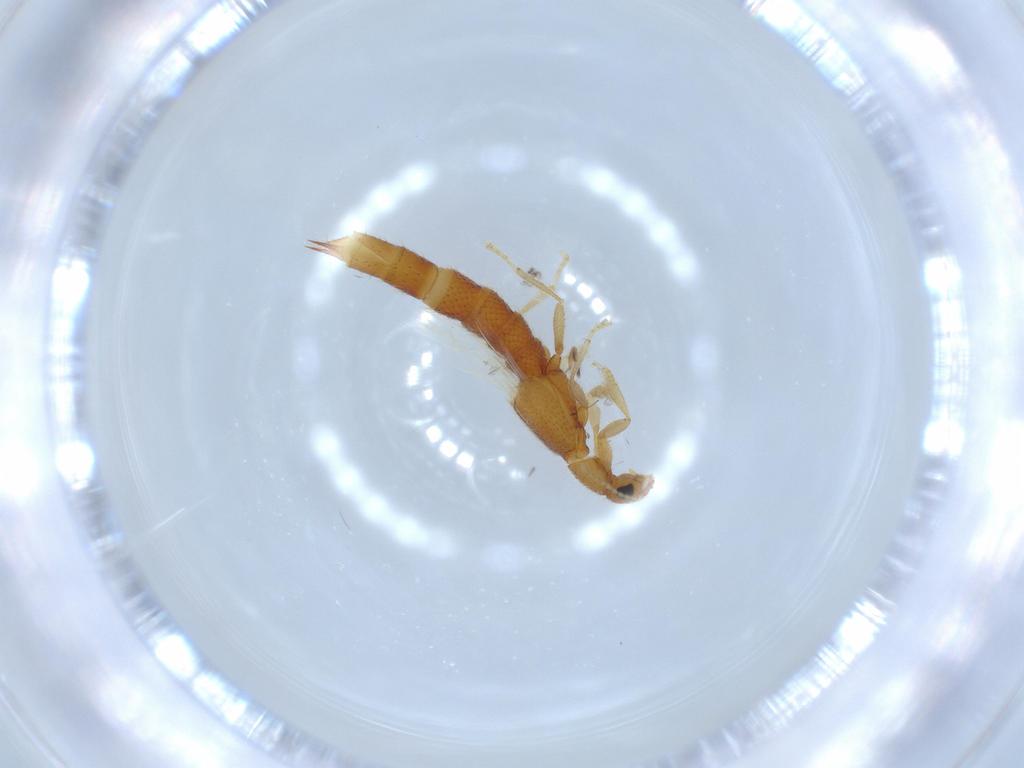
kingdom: Animalia
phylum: Arthropoda
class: Insecta
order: Coleoptera
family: Staphylinidae
